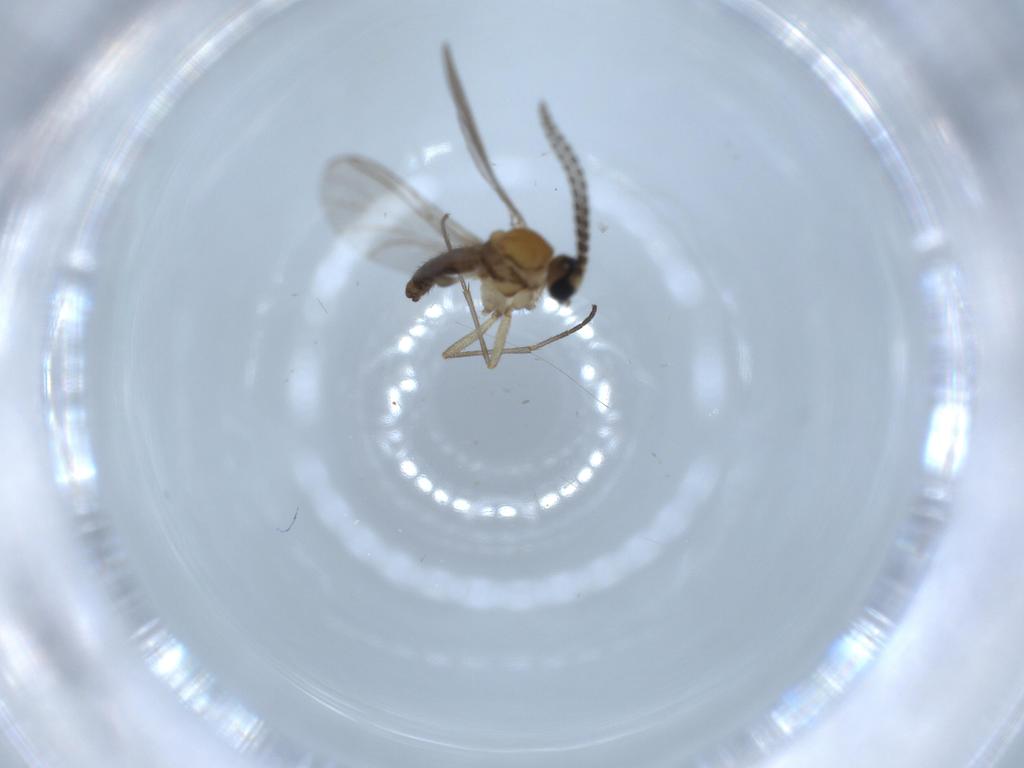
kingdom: Animalia
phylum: Arthropoda
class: Insecta
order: Diptera
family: Sciaridae
